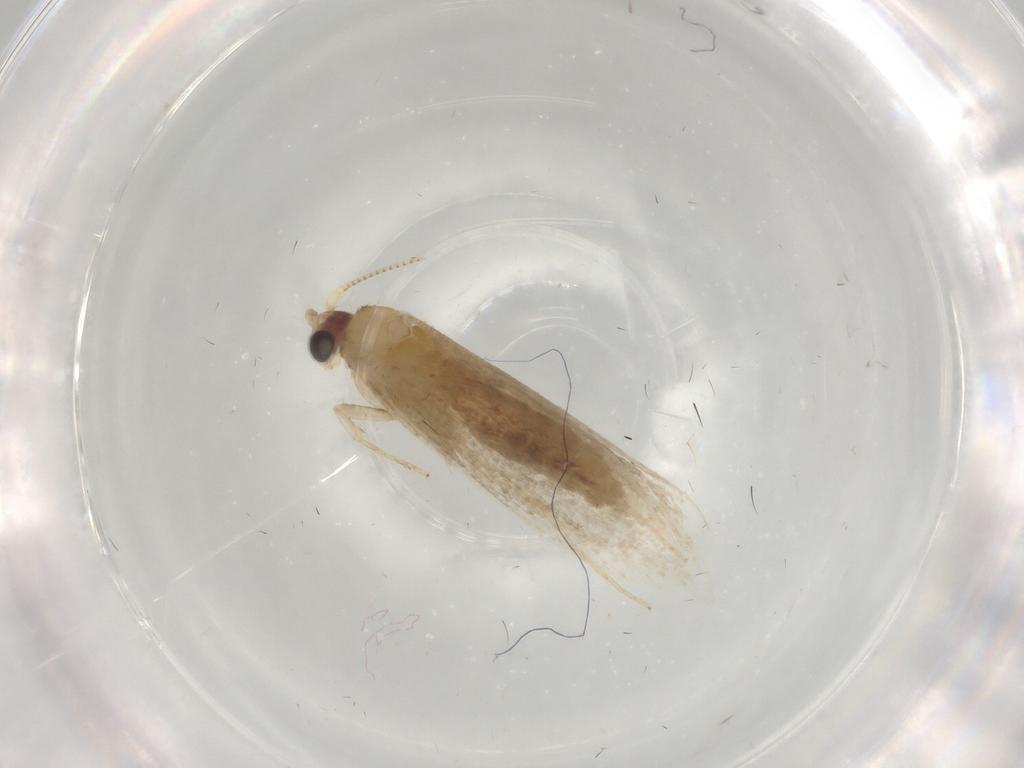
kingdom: Animalia
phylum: Arthropoda
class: Insecta
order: Lepidoptera
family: Nepticulidae
